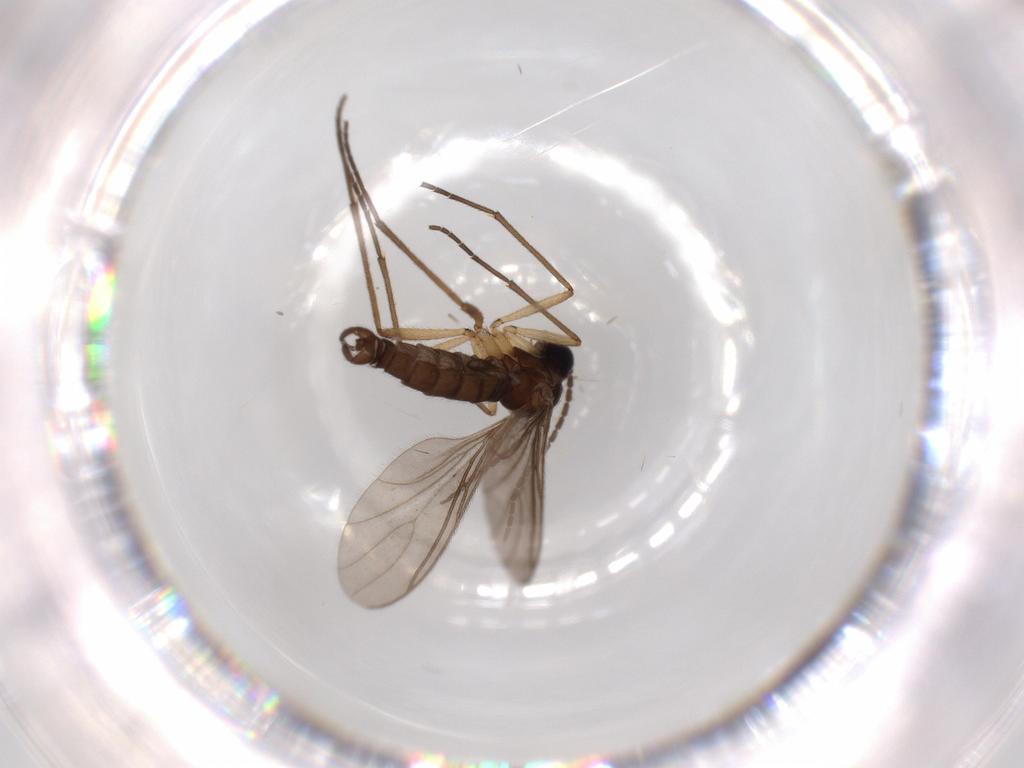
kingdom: Animalia
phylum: Arthropoda
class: Insecta
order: Diptera
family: Sciaridae
